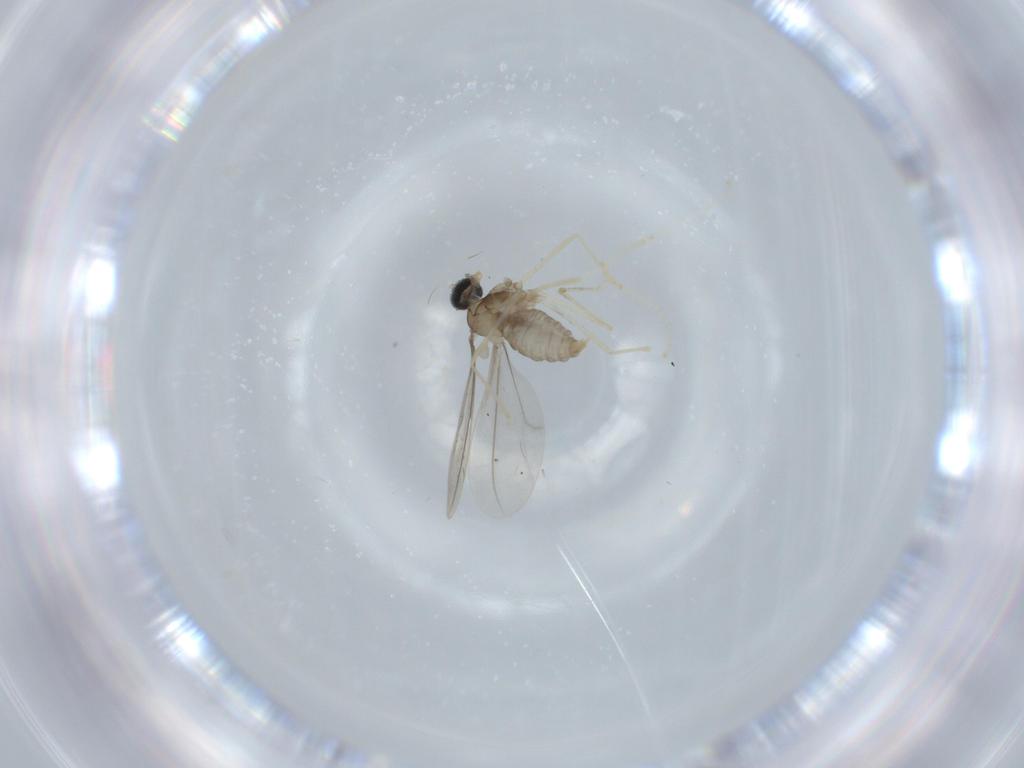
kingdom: Animalia
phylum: Arthropoda
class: Insecta
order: Diptera
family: Cecidomyiidae
